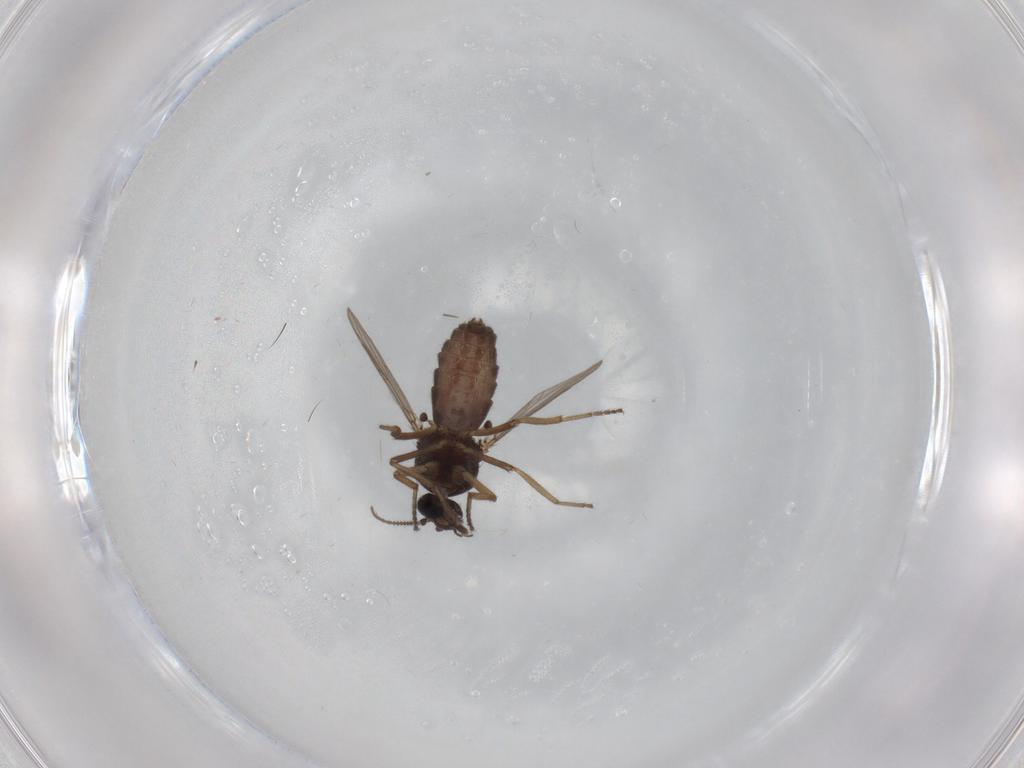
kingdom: Animalia
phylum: Arthropoda
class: Insecta
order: Diptera
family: Ceratopogonidae
